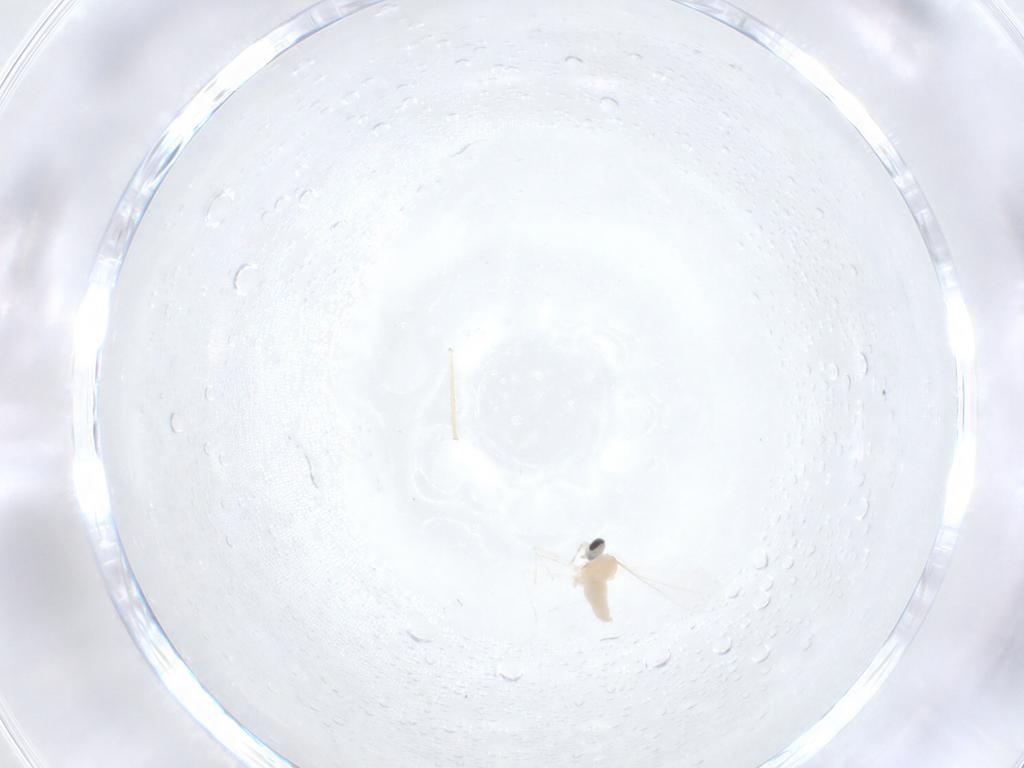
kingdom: Animalia
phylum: Arthropoda
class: Insecta
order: Diptera
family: Cecidomyiidae
